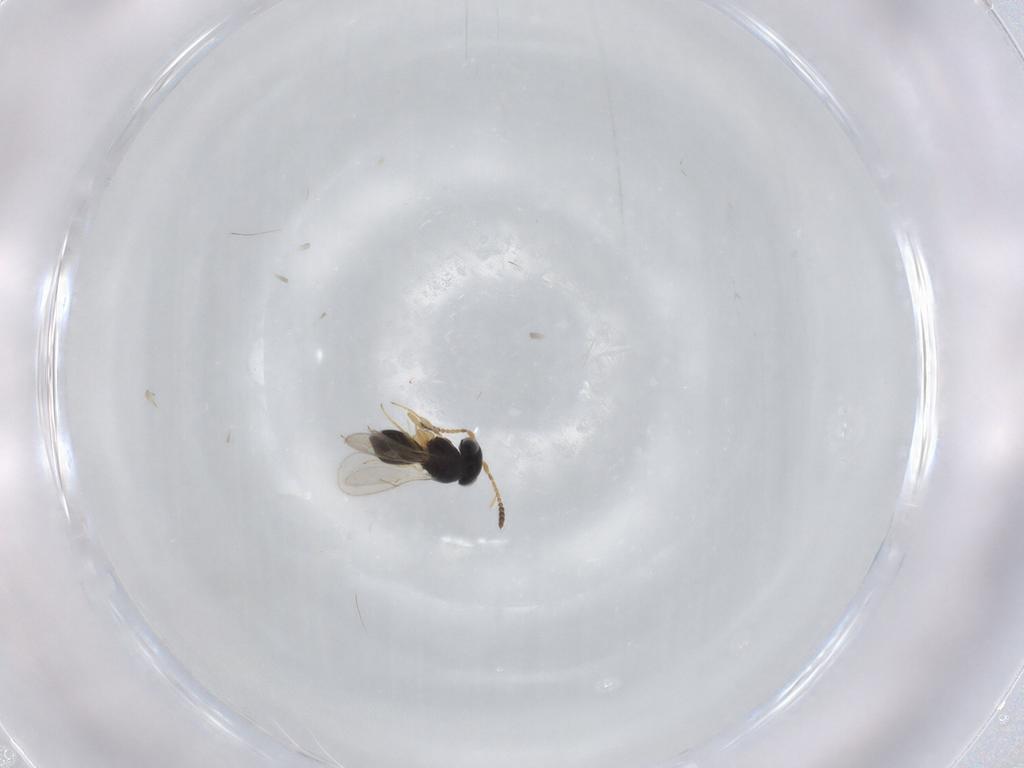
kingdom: Animalia
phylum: Arthropoda
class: Insecta
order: Hymenoptera
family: Scelionidae
